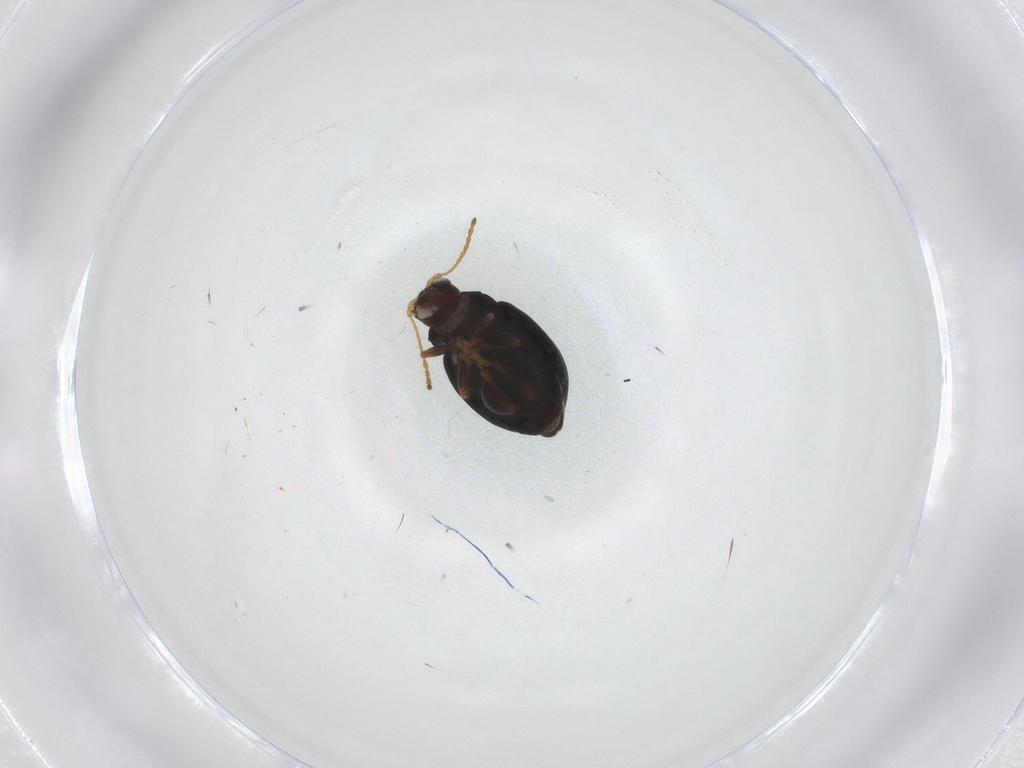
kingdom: Animalia
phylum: Arthropoda
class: Insecta
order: Coleoptera
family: Chrysomelidae
